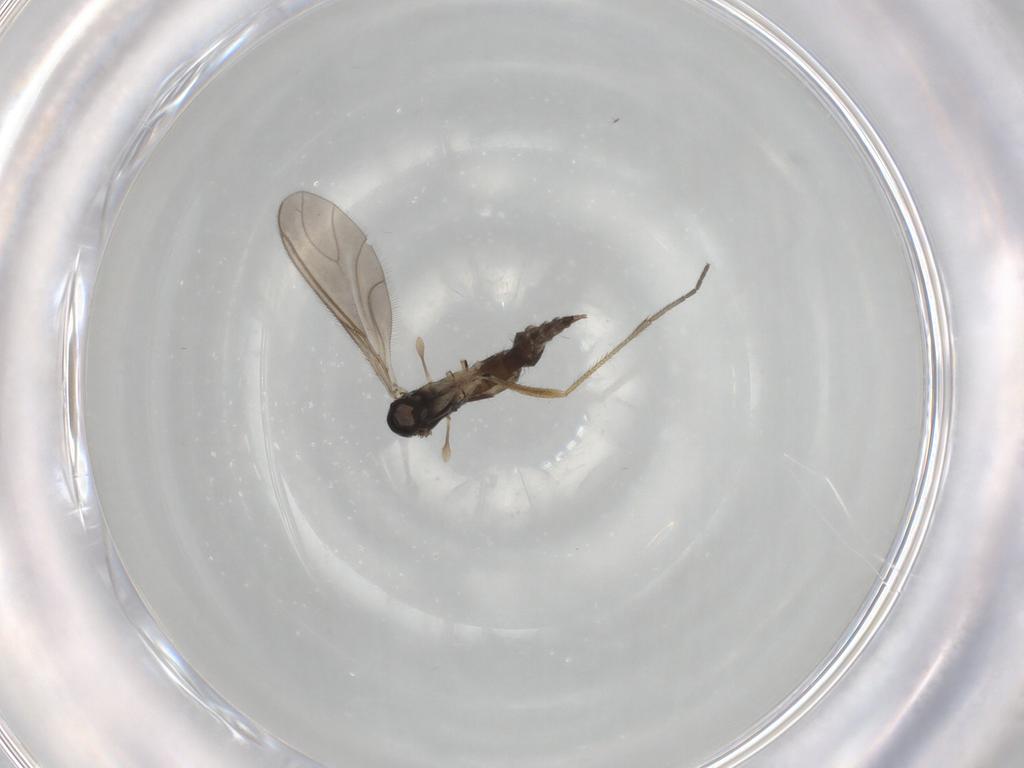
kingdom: Animalia
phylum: Arthropoda
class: Insecta
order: Diptera
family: Sciaridae
